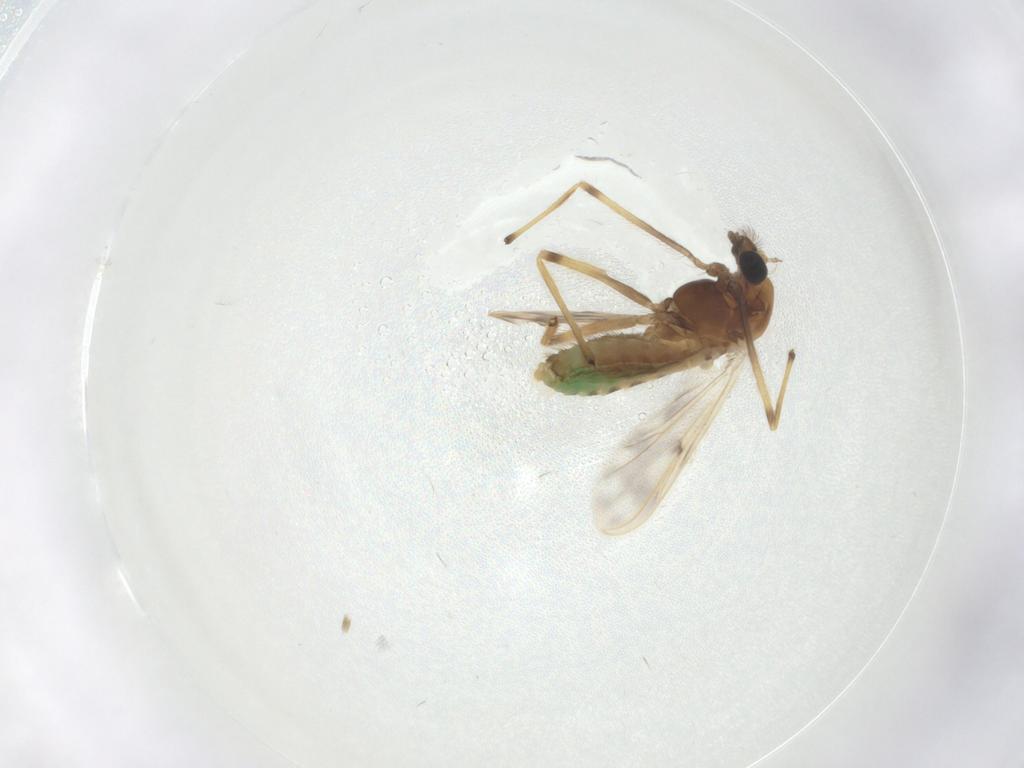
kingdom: Animalia
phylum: Arthropoda
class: Insecta
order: Diptera
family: Chironomidae
